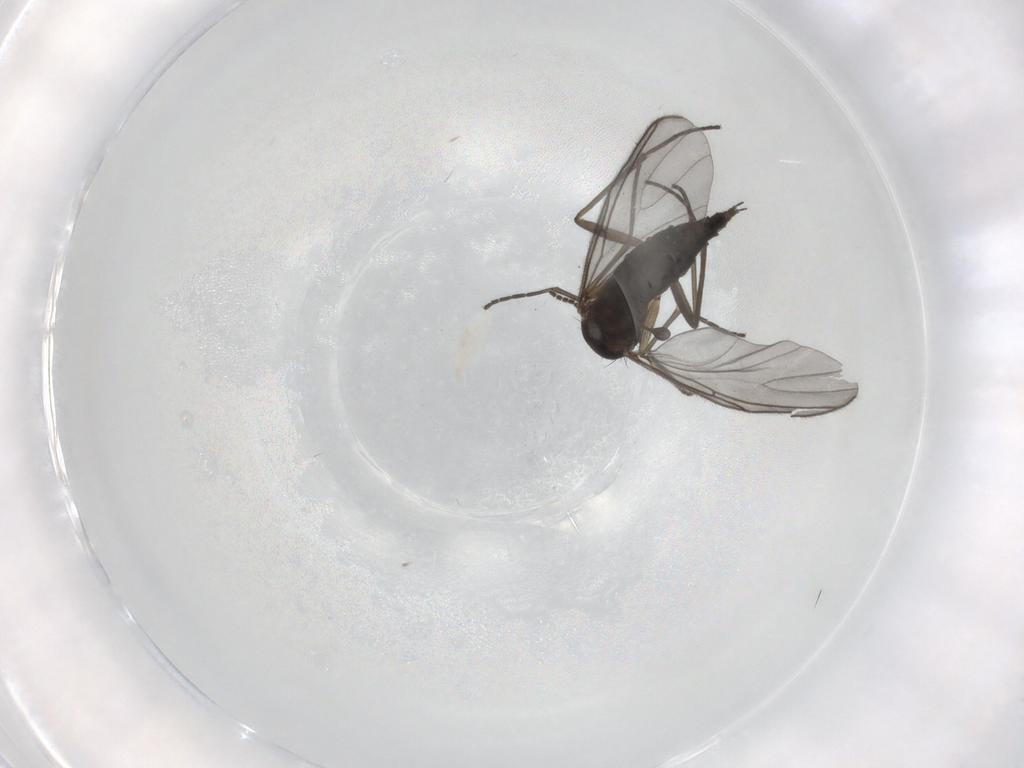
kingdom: Animalia
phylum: Arthropoda
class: Insecta
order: Diptera
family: Sciaridae
